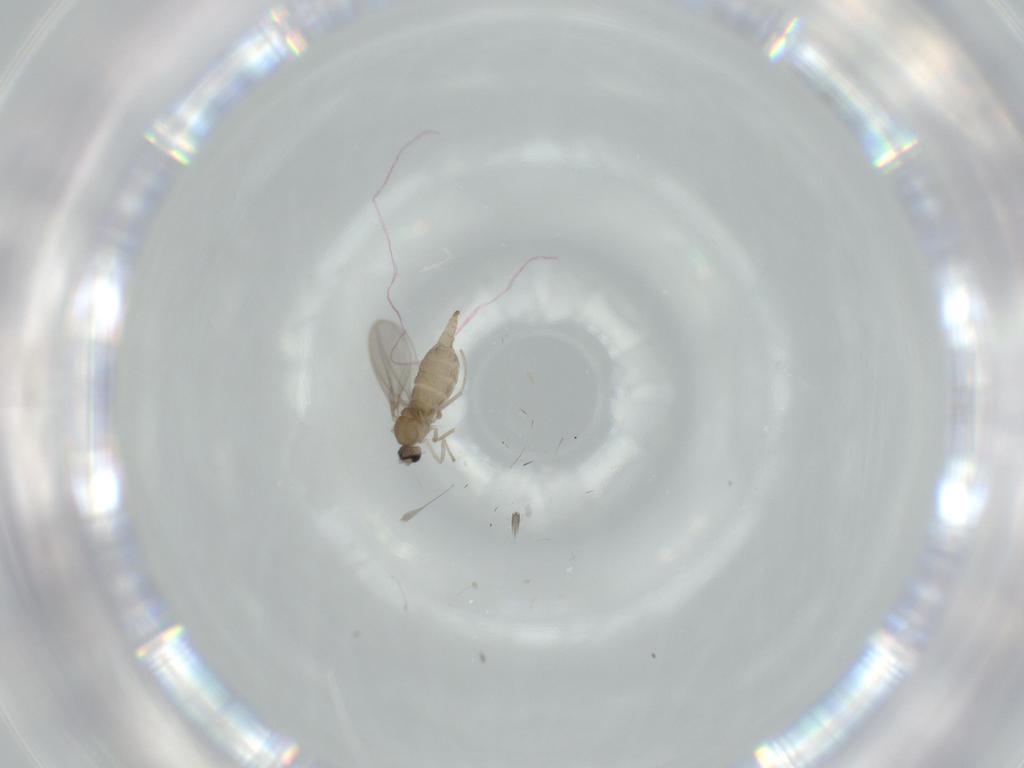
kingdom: Animalia
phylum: Arthropoda
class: Insecta
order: Diptera
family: Cecidomyiidae
